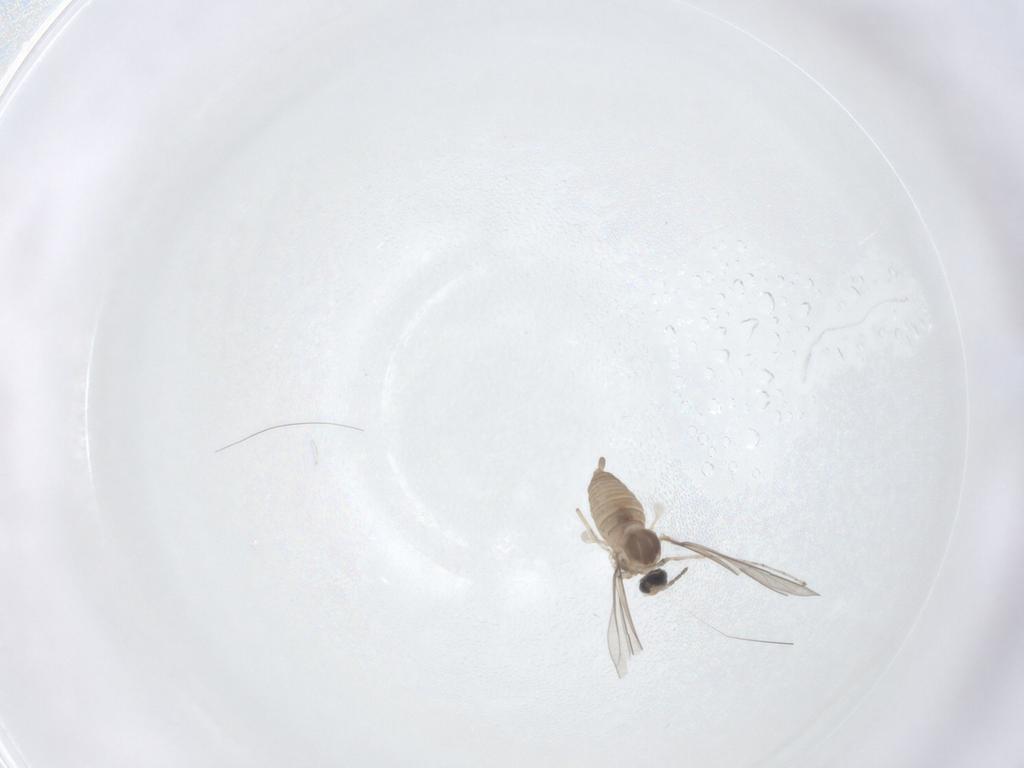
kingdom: Animalia
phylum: Arthropoda
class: Insecta
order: Diptera
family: Cecidomyiidae
